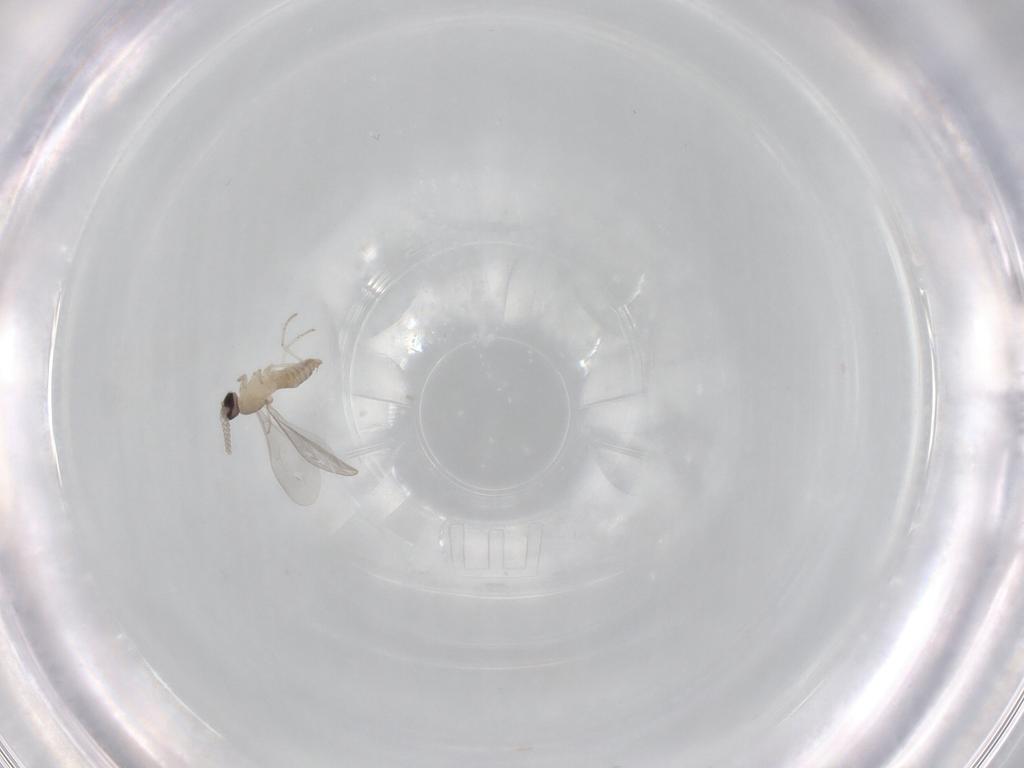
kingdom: Animalia
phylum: Arthropoda
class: Insecta
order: Diptera
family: Cecidomyiidae
